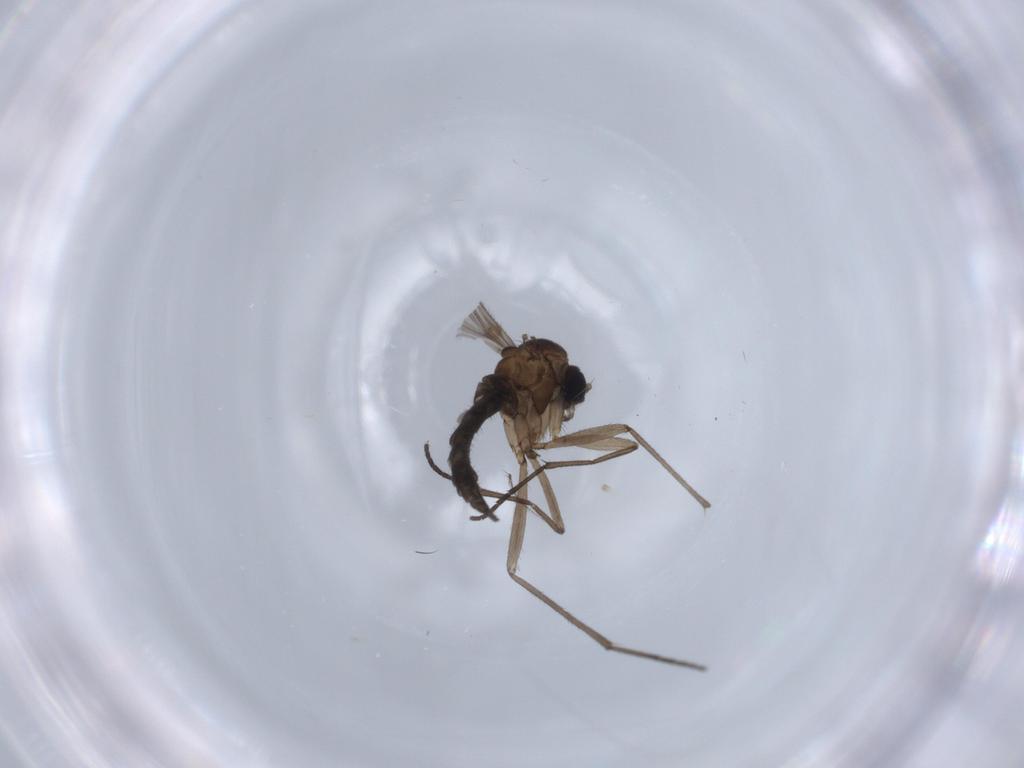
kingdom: Animalia
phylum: Arthropoda
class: Insecta
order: Diptera
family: Sciaridae
